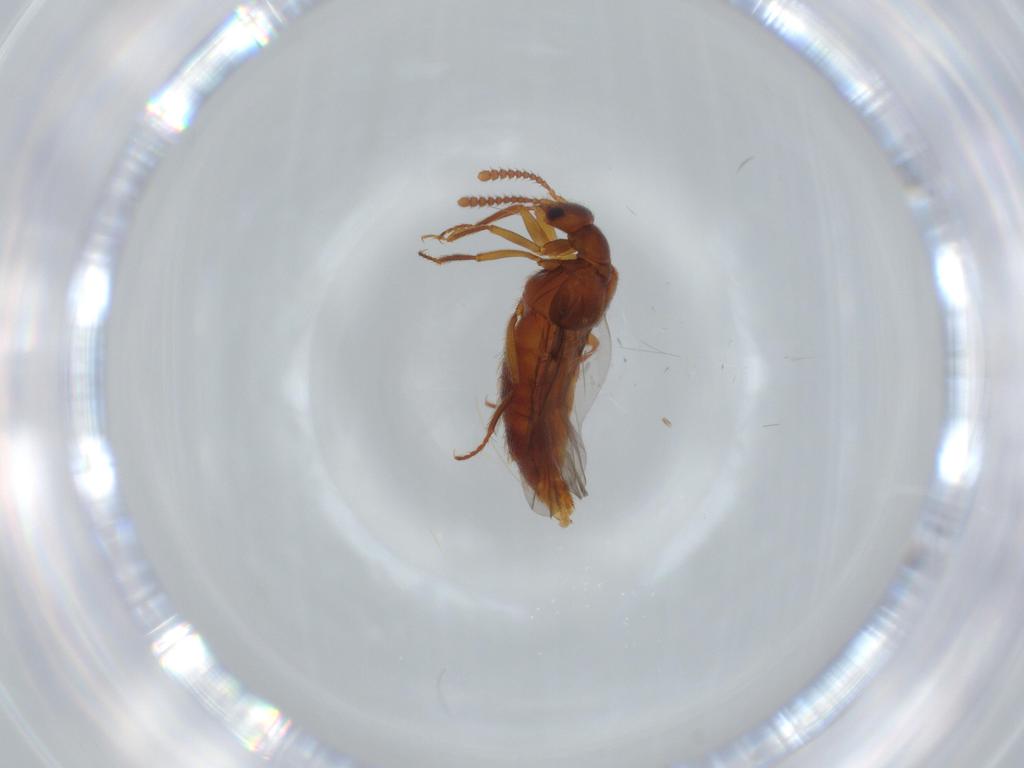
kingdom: Animalia
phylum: Arthropoda
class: Insecta
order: Coleoptera
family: Staphylinidae
